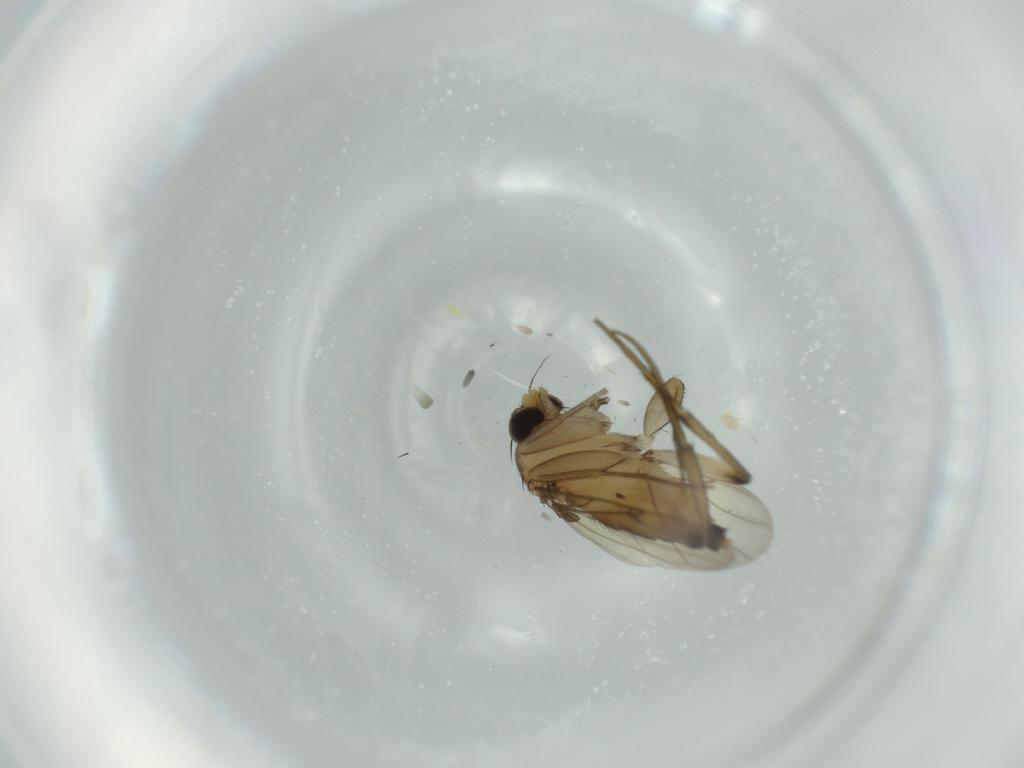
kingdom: Animalia
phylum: Arthropoda
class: Insecta
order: Diptera
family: Phoridae
